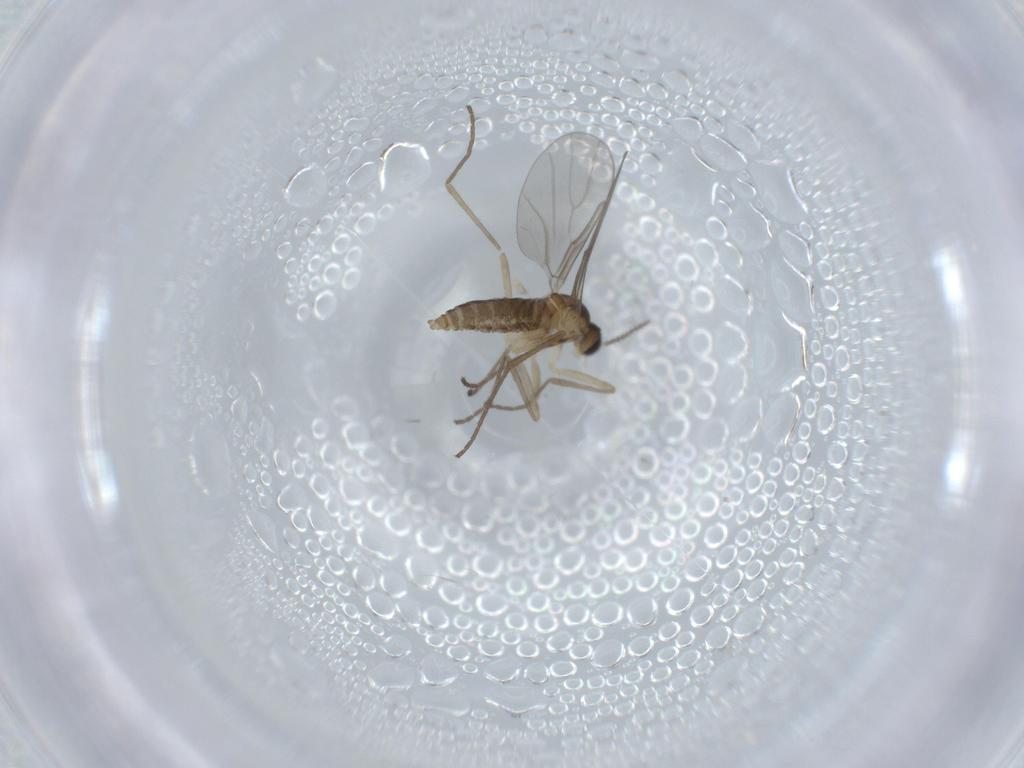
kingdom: Animalia
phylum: Arthropoda
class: Insecta
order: Diptera
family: Cecidomyiidae
